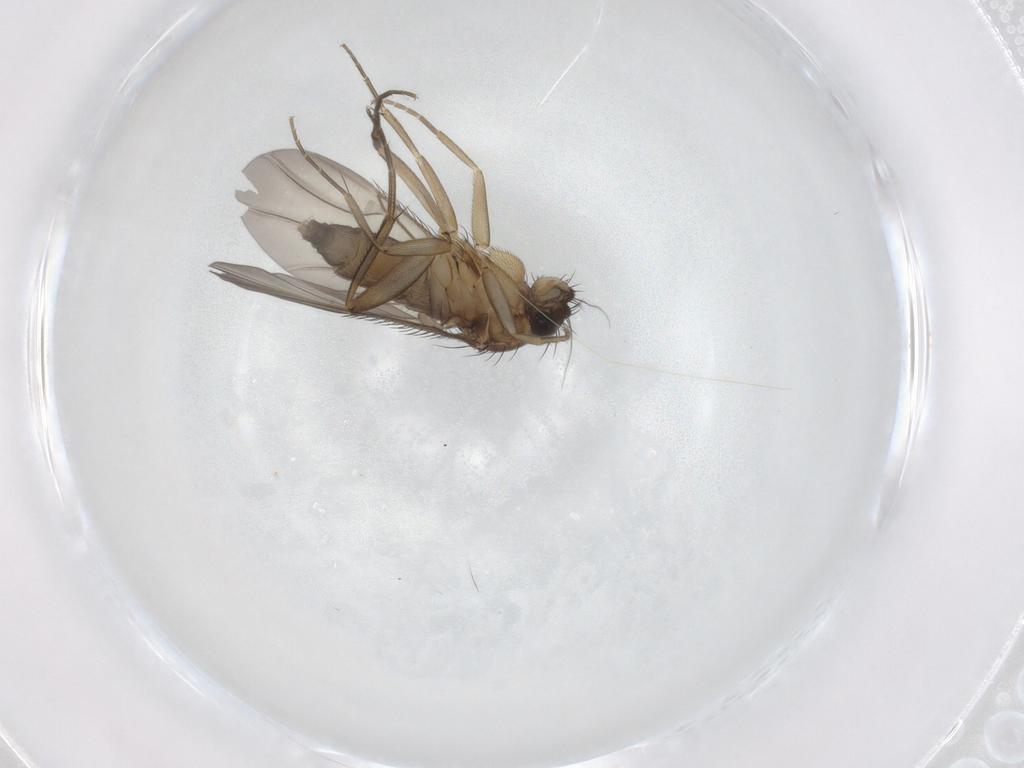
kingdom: Animalia
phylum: Arthropoda
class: Insecta
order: Diptera
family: Phoridae
